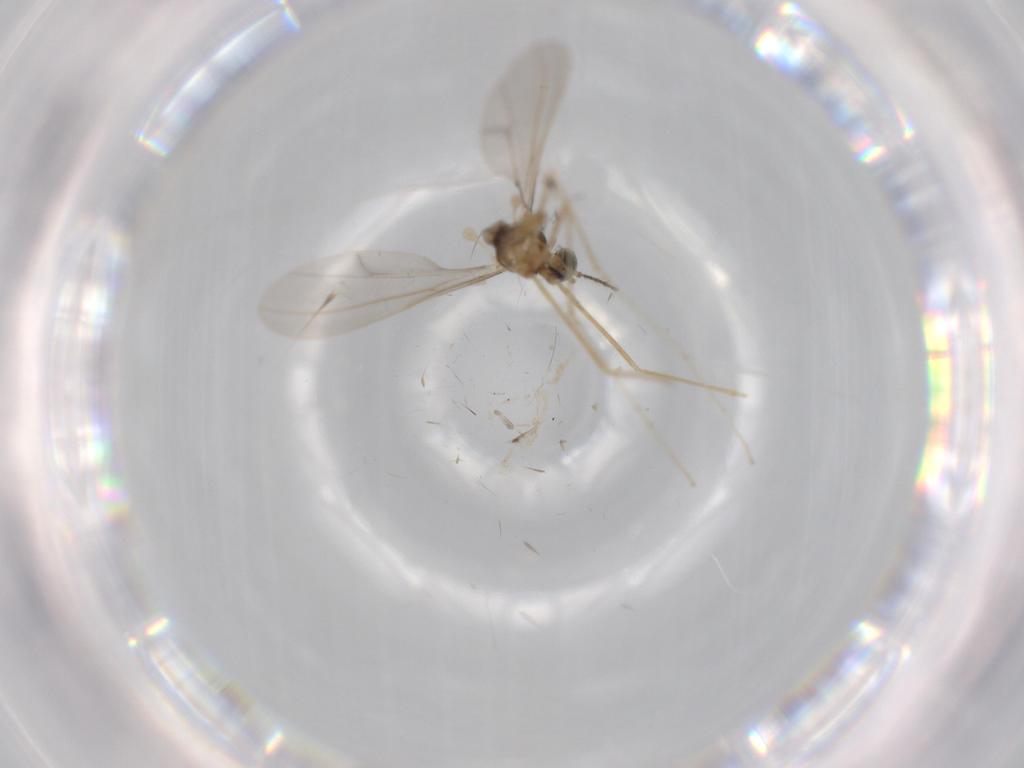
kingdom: Animalia
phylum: Arthropoda
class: Insecta
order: Diptera
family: Cecidomyiidae
